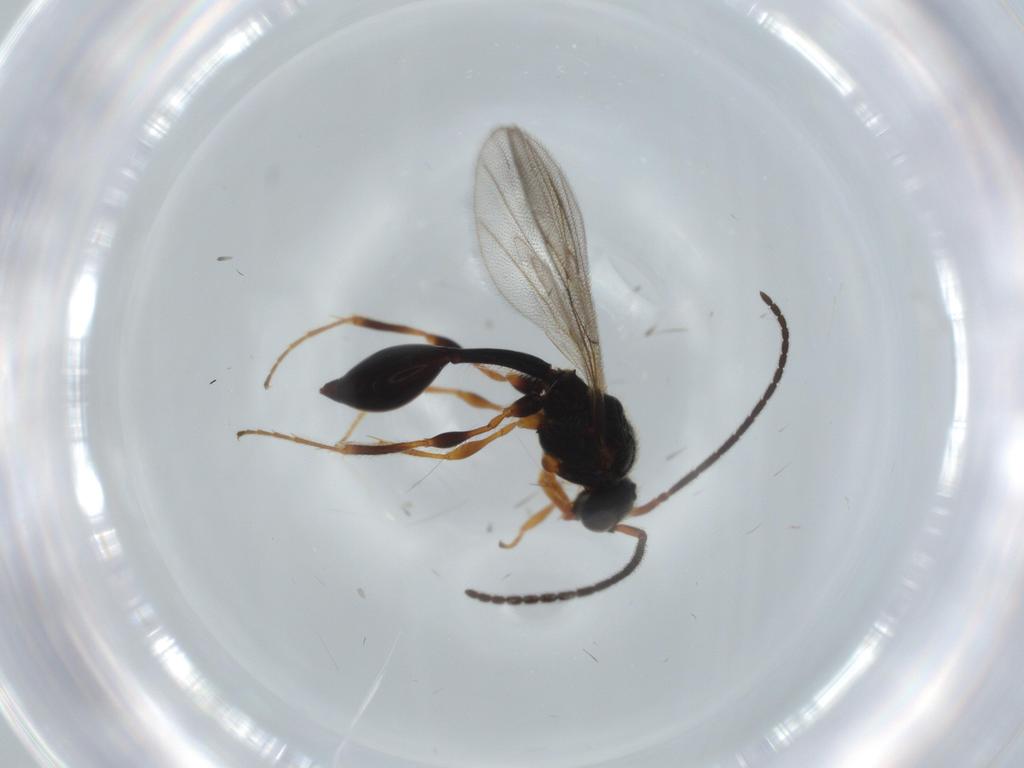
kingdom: Animalia
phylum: Arthropoda
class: Insecta
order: Hymenoptera
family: Diapriidae
